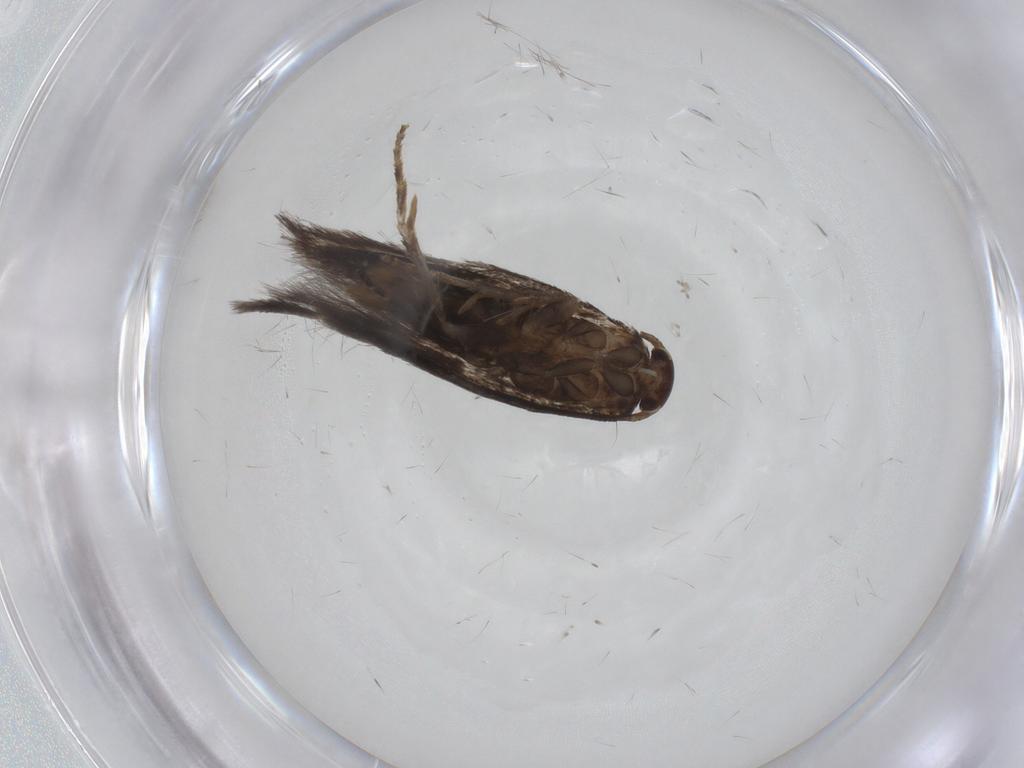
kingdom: Animalia
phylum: Arthropoda
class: Insecta
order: Lepidoptera
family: Elachistidae
